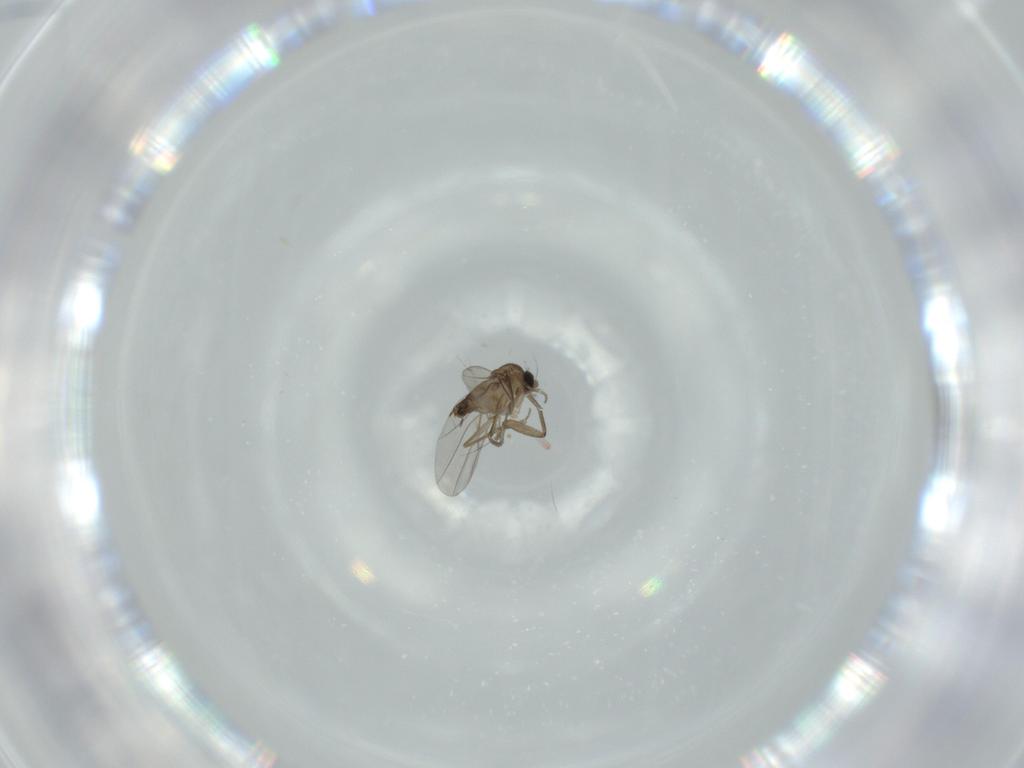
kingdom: Animalia
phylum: Arthropoda
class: Insecta
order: Diptera
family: Phoridae
